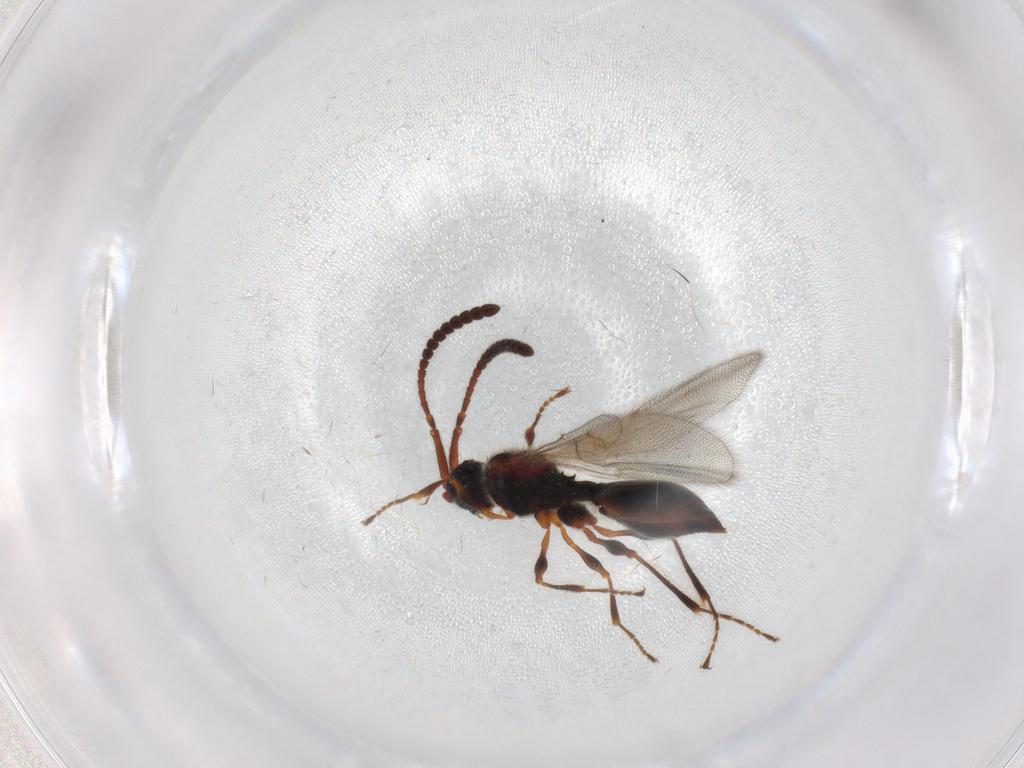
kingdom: Animalia
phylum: Arthropoda
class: Insecta
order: Hymenoptera
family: Diapriidae
